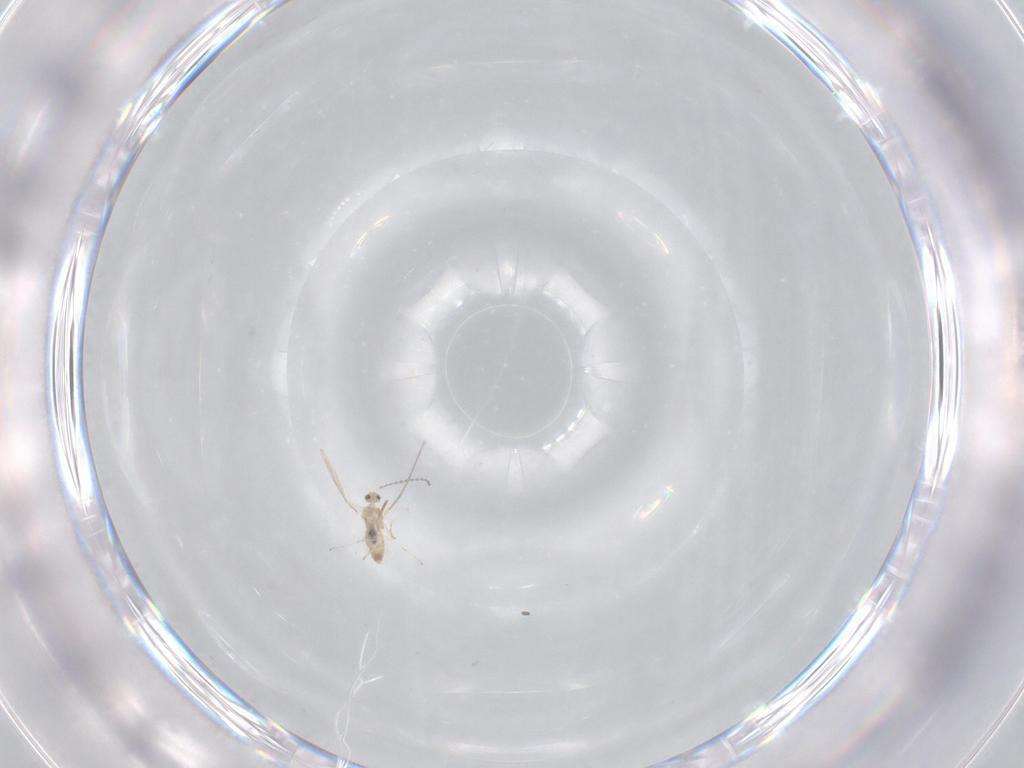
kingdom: Animalia
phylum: Arthropoda
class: Insecta
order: Diptera
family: Cecidomyiidae
